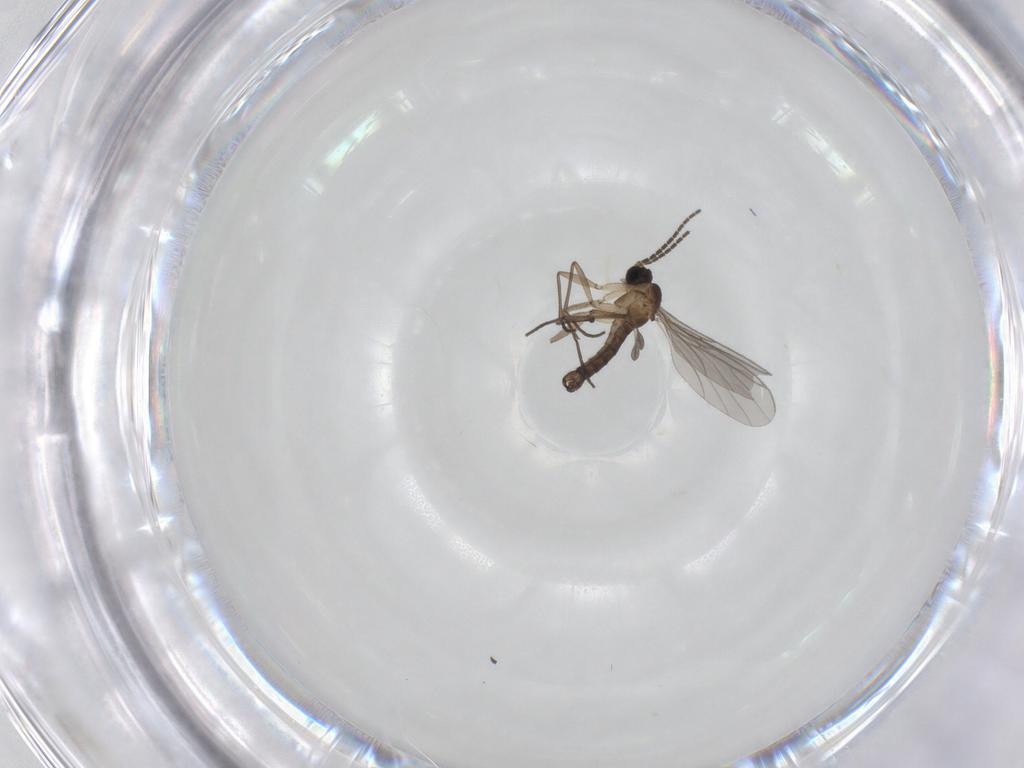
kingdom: Animalia
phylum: Arthropoda
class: Insecta
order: Diptera
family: Sciaridae
